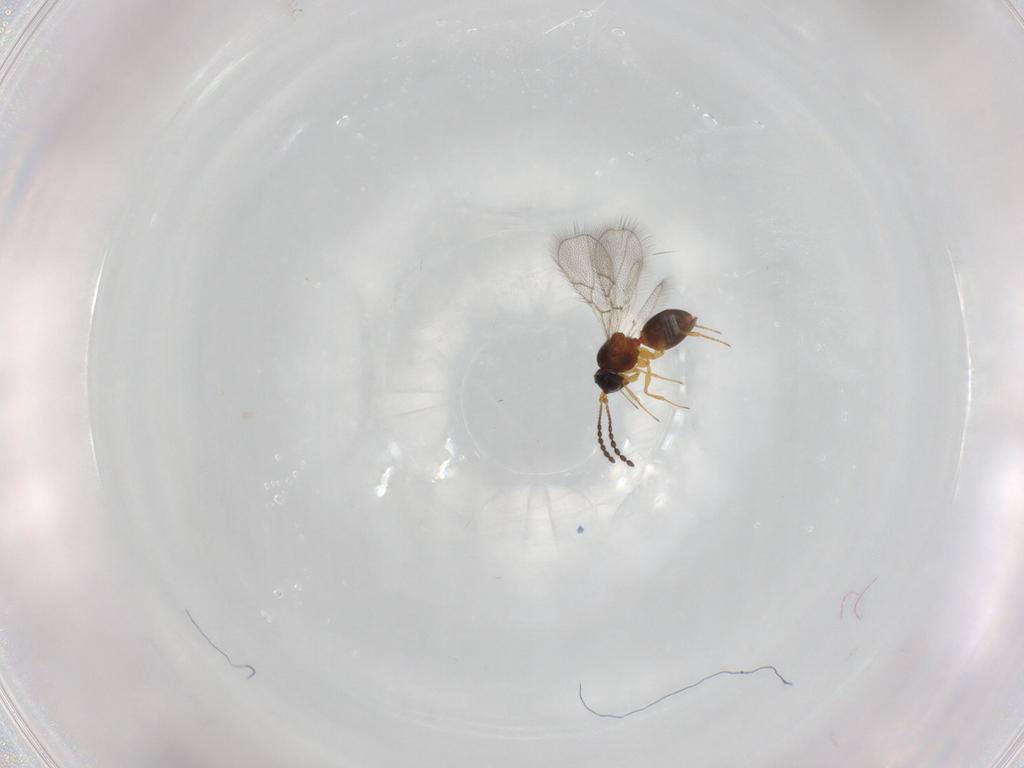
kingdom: Animalia
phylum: Arthropoda
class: Insecta
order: Hymenoptera
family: Figitidae
